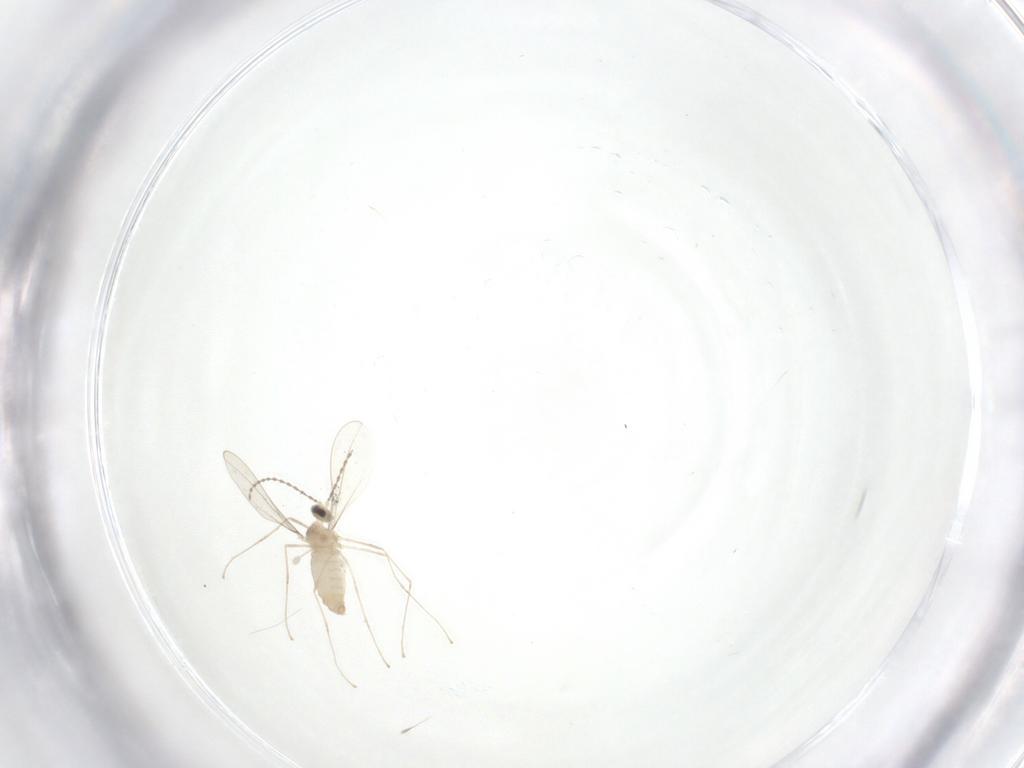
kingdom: Animalia
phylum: Arthropoda
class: Insecta
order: Diptera
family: Cecidomyiidae
